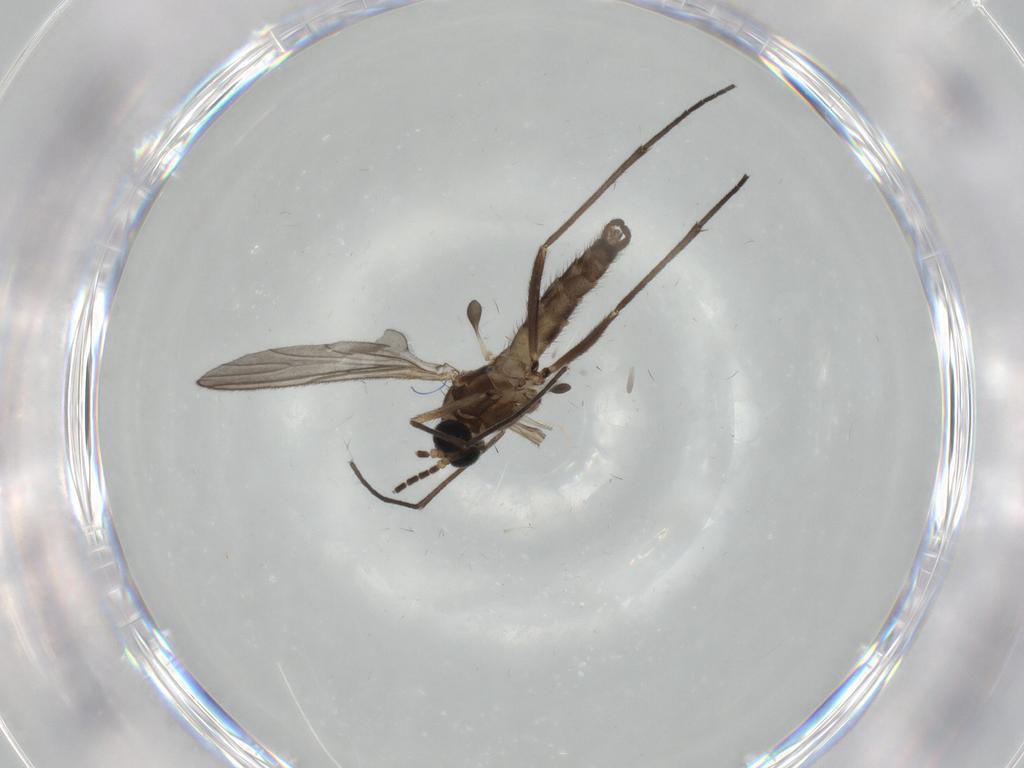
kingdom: Animalia
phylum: Arthropoda
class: Insecta
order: Diptera
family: Sciaridae
